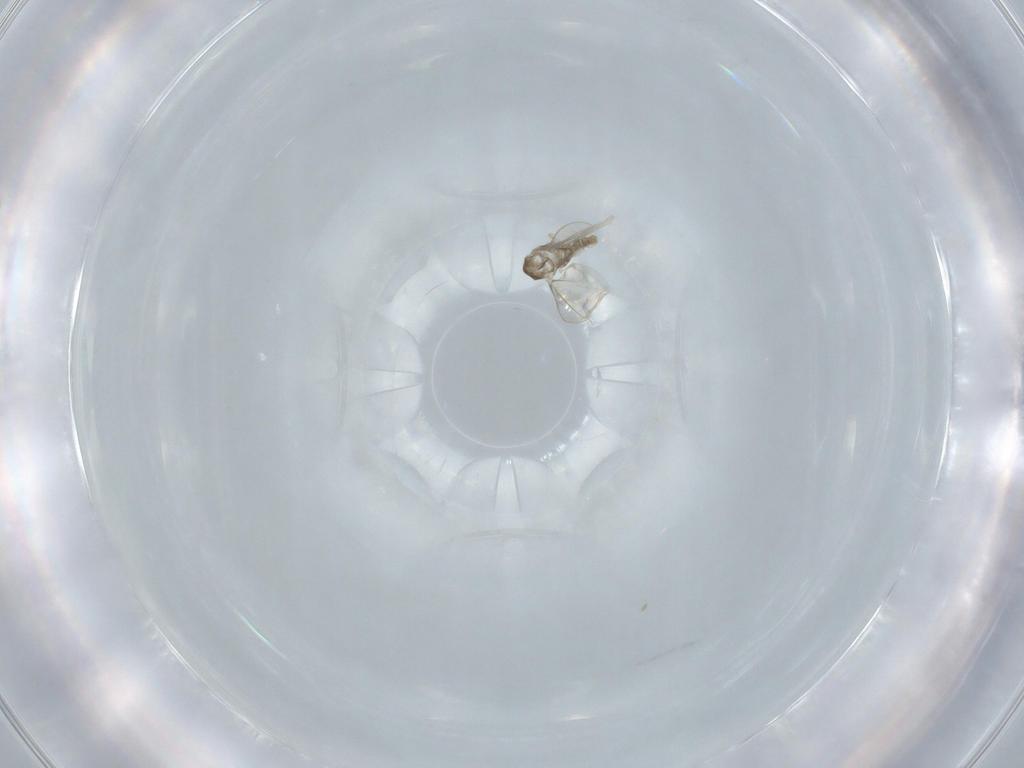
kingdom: Animalia
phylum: Arthropoda
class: Insecta
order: Diptera
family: Cecidomyiidae
